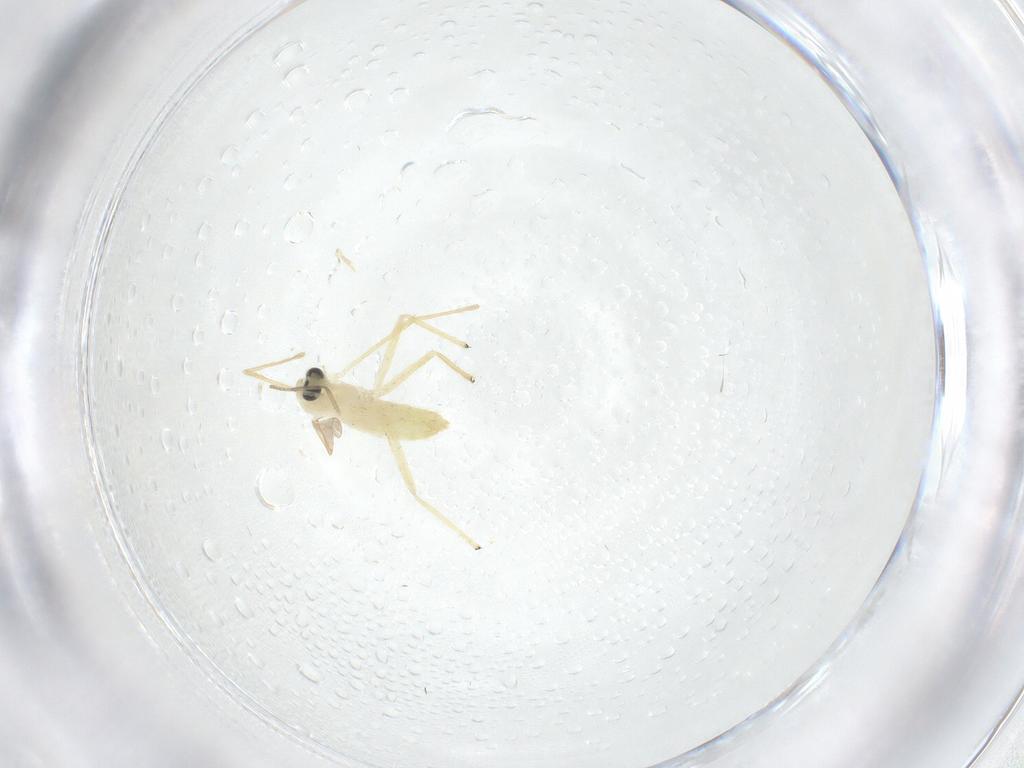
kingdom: Animalia
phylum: Arthropoda
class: Insecta
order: Diptera
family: Chironomidae
